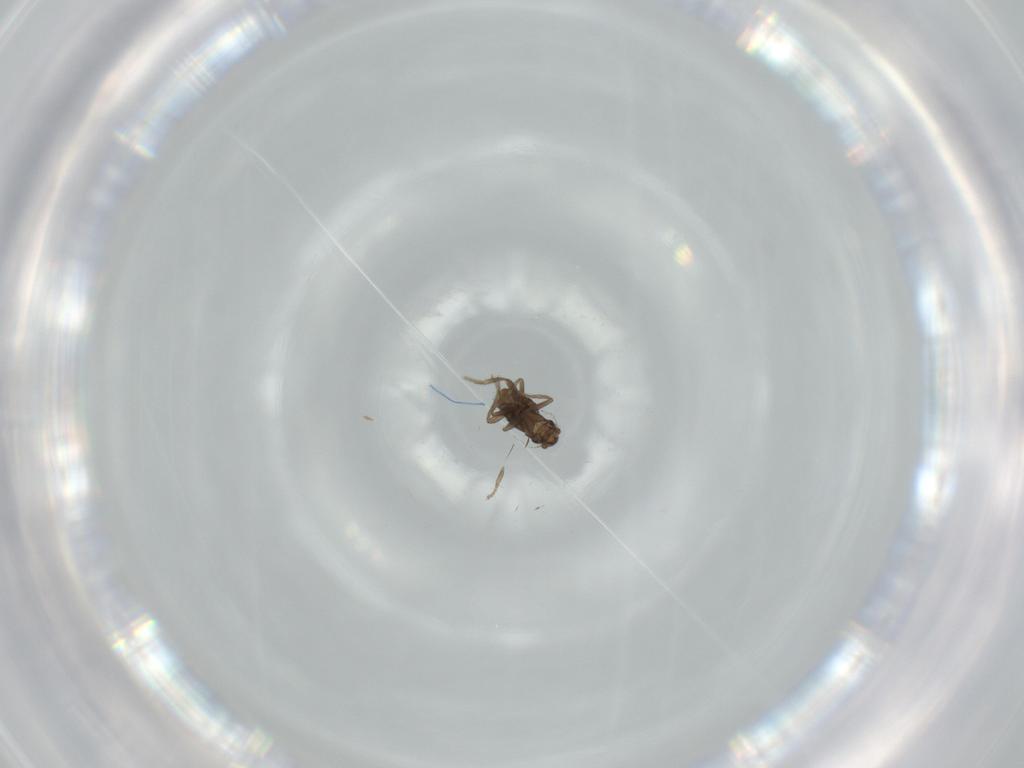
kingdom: Animalia
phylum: Arthropoda
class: Insecta
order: Diptera
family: Phoridae
